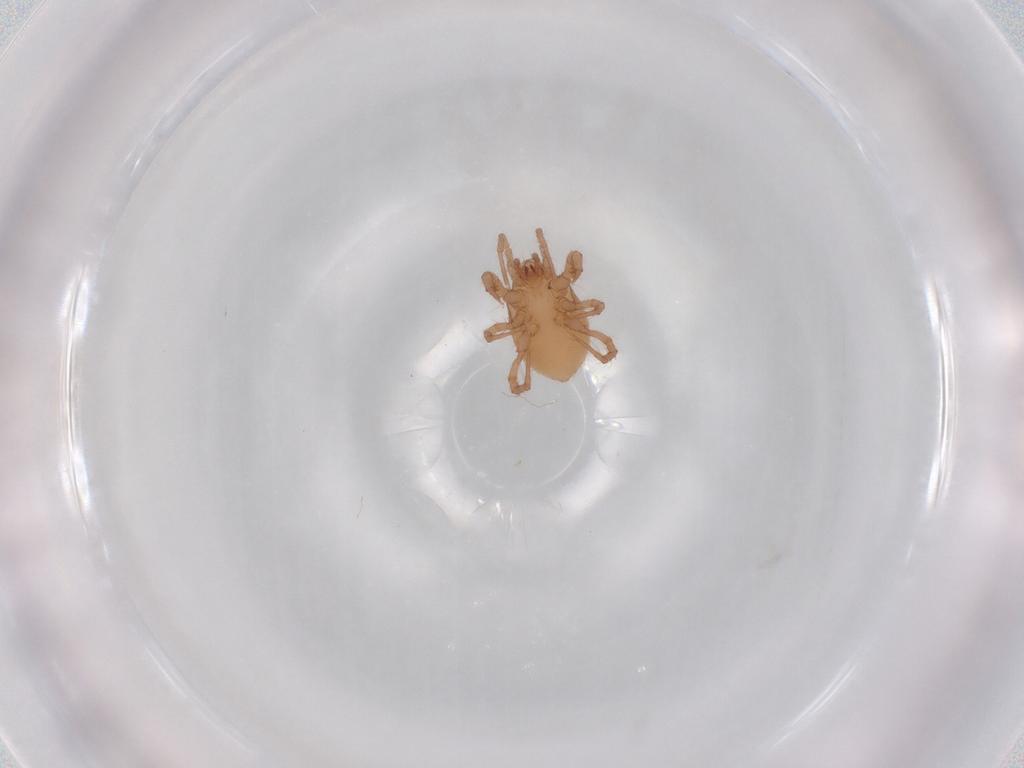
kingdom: Animalia
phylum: Arthropoda
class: Arachnida
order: Mesostigmata
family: Parasitidae
